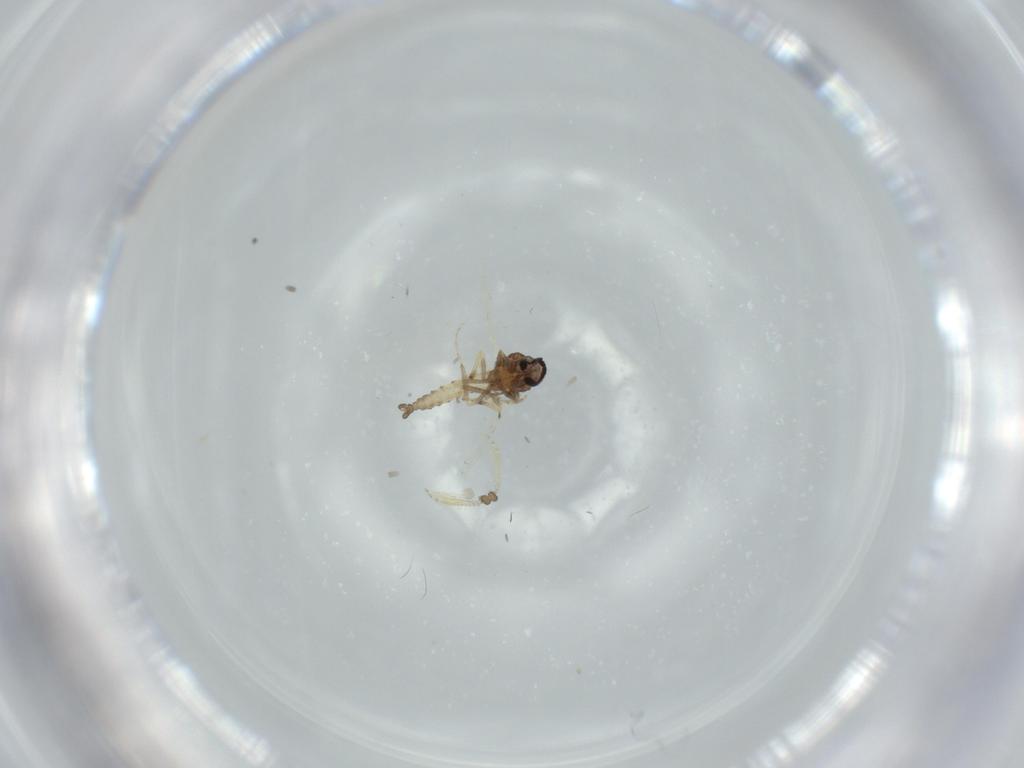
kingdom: Animalia
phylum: Arthropoda
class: Insecta
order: Diptera
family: Ceratopogonidae
